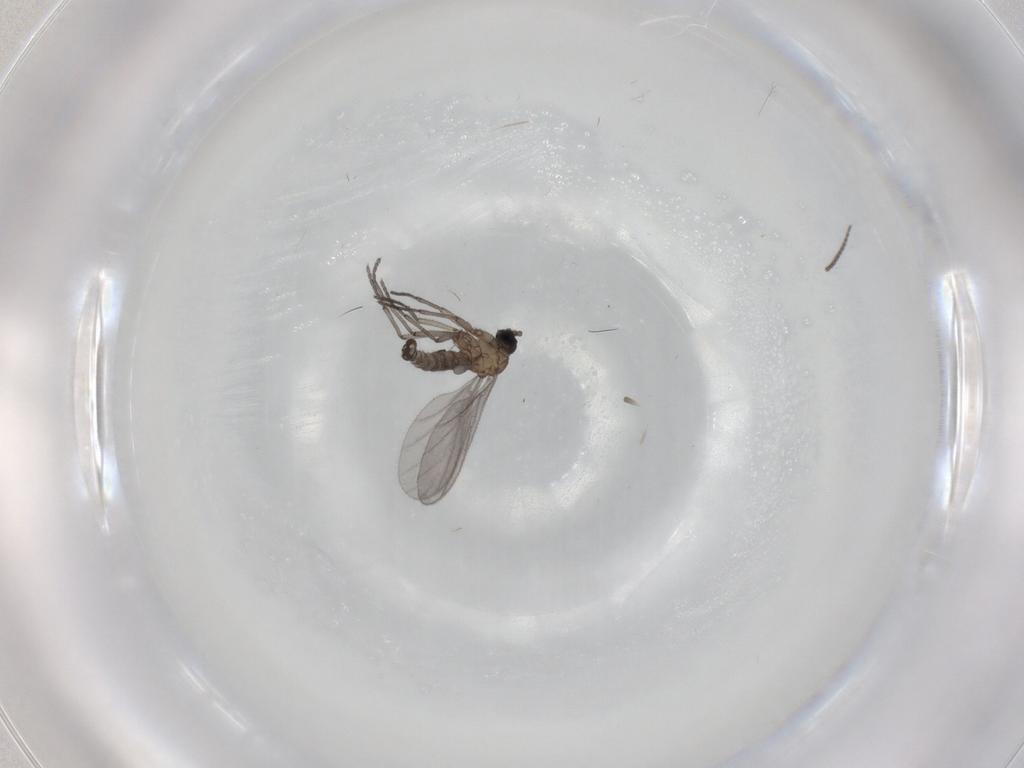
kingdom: Animalia
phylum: Arthropoda
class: Insecta
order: Diptera
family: Sciaridae
